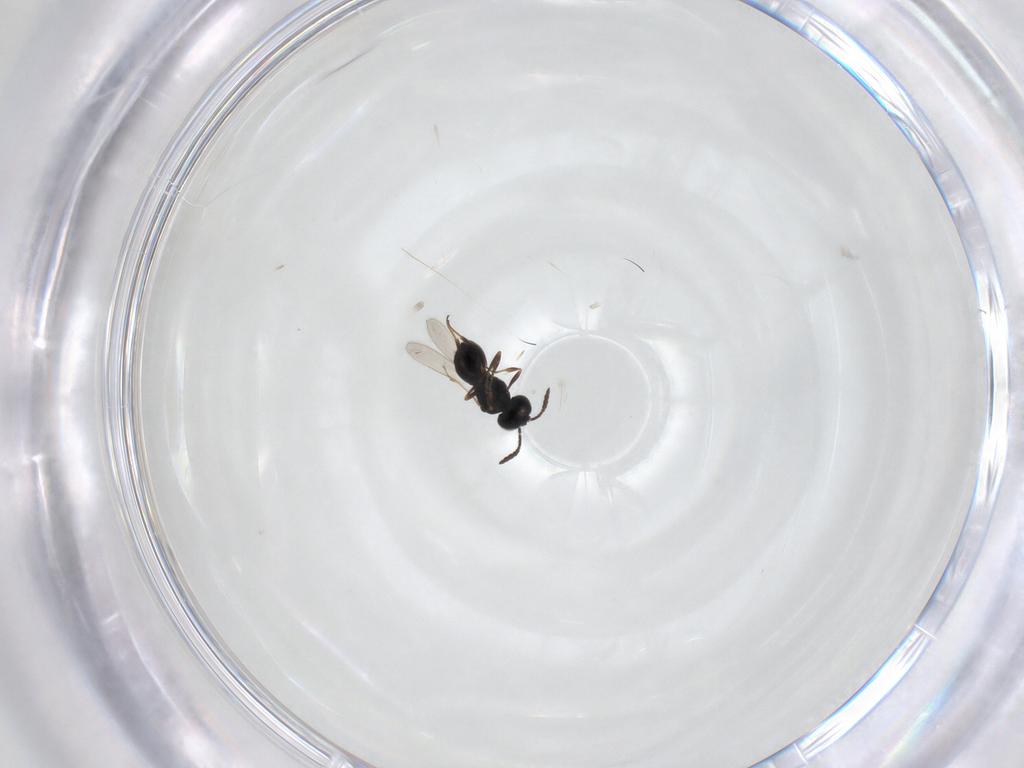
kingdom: Animalia
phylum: Arthropoda
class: Insecta
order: Hymenoptera
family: Scelionidae
